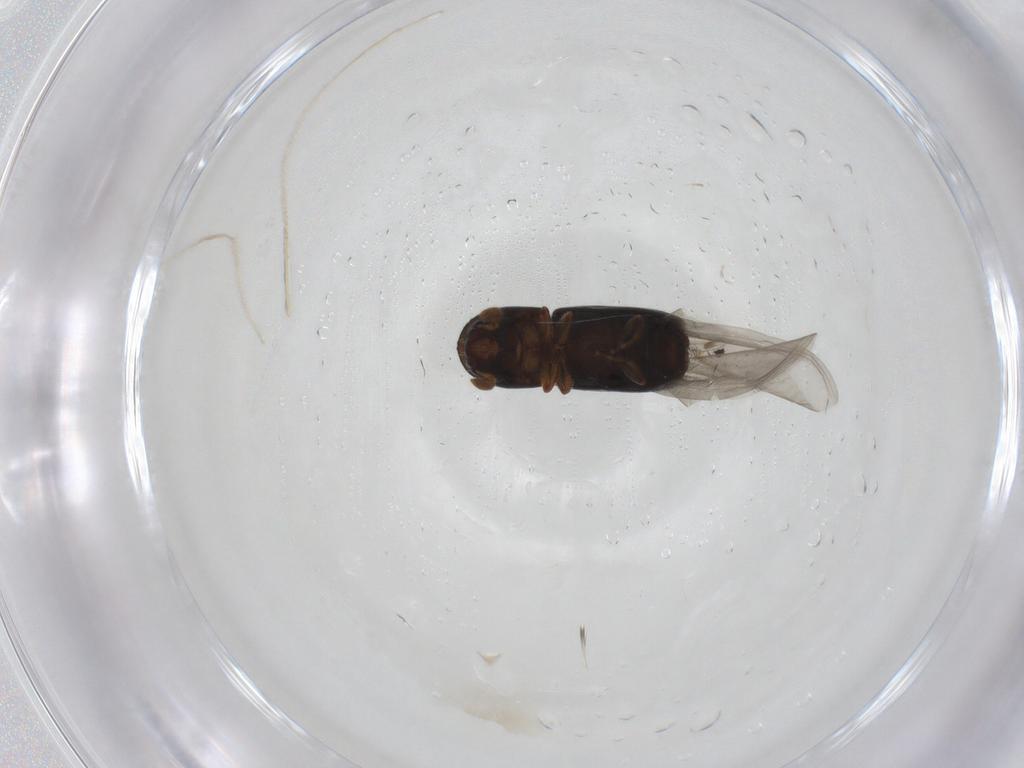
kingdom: Animalia
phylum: Arthropoda
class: Insecta
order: Coleoptera
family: Curculionidae
